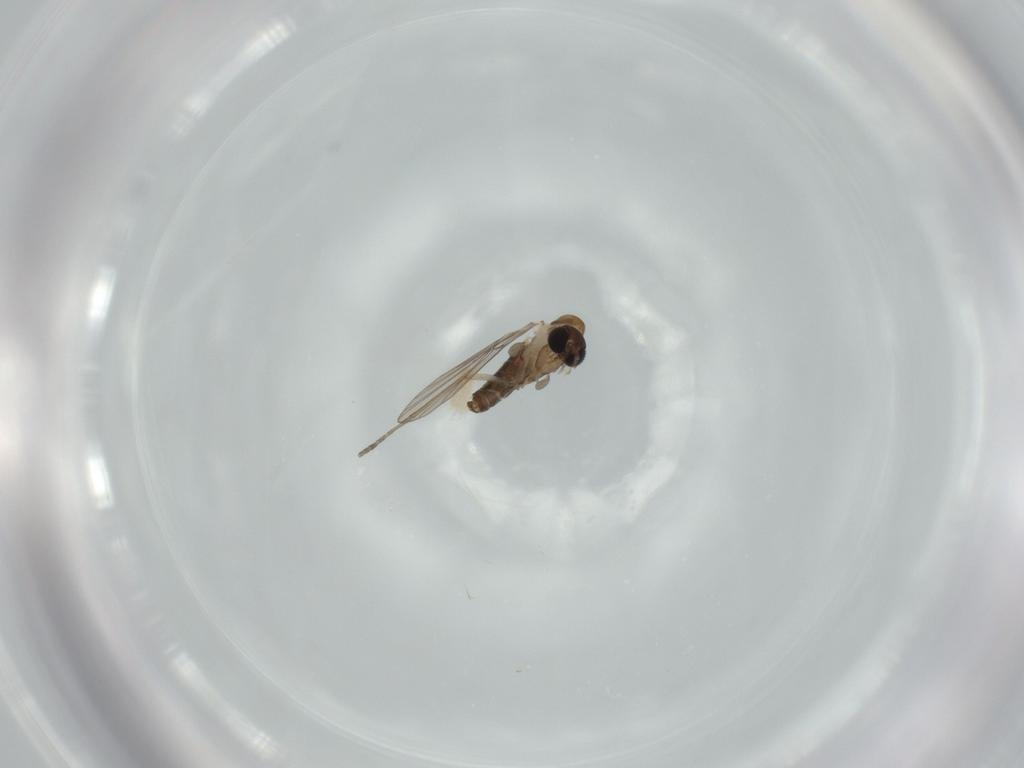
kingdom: Animalia
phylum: Arthropoda
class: Insecta
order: Diptera
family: Psychodidae
